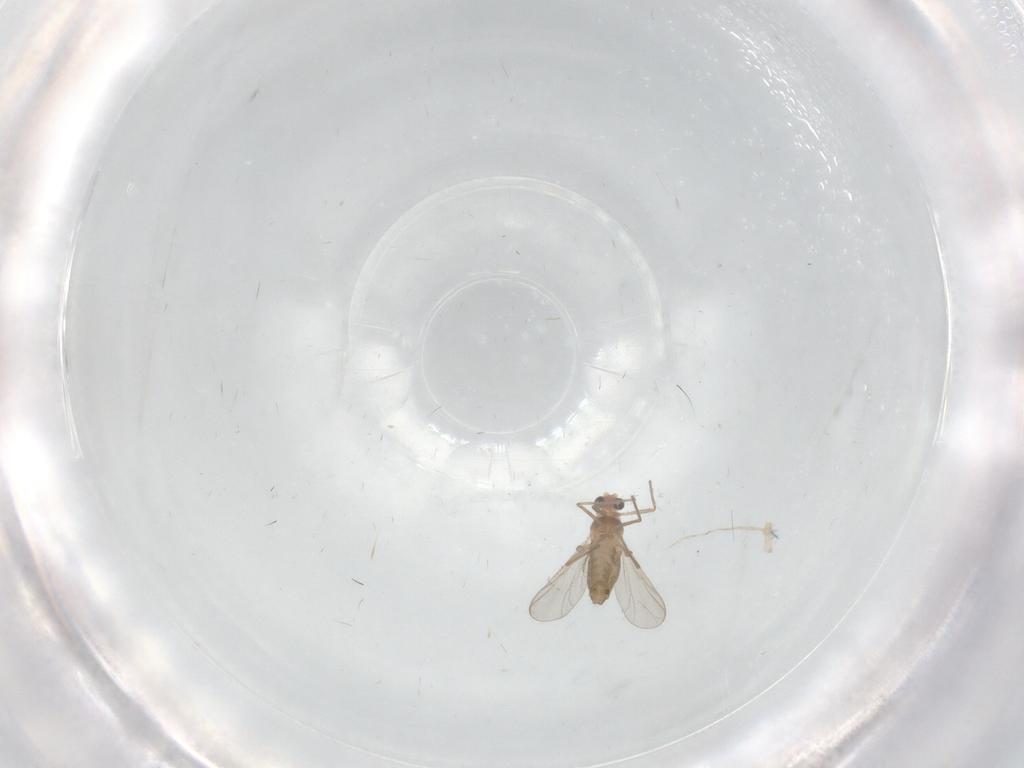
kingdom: Animalia
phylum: Arthropoda
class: Insecta
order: Diptera
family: Chironomidae
